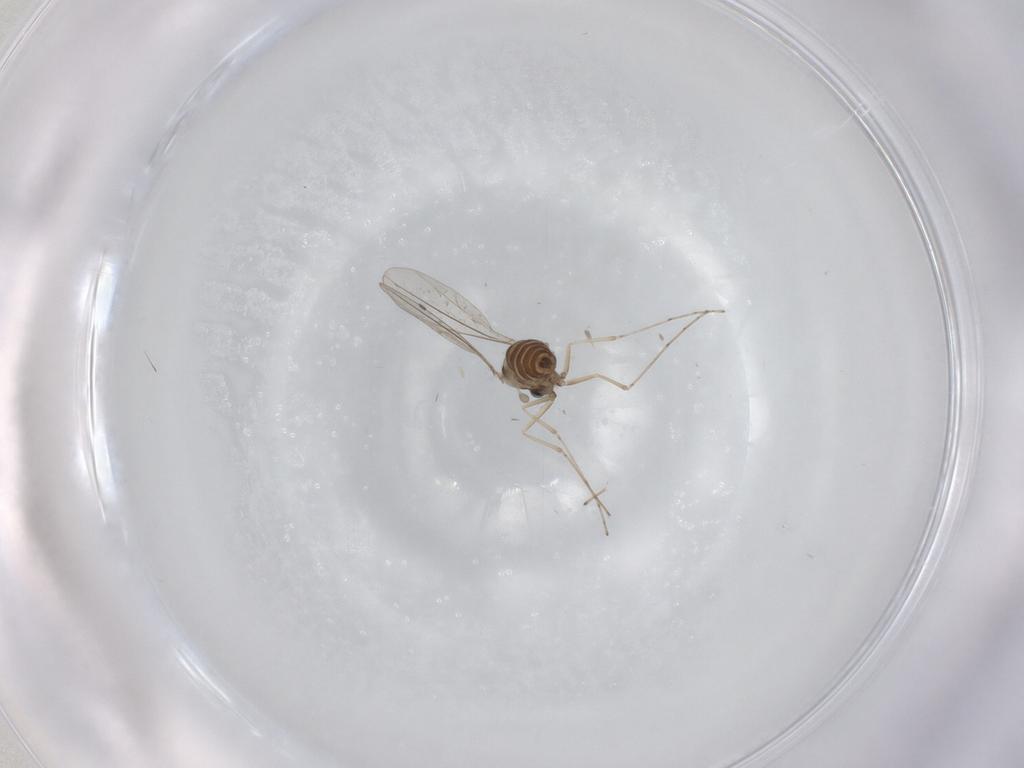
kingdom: Animalia
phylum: Arthropoda
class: Insecta
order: Diptera
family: Cecidomyiidae
